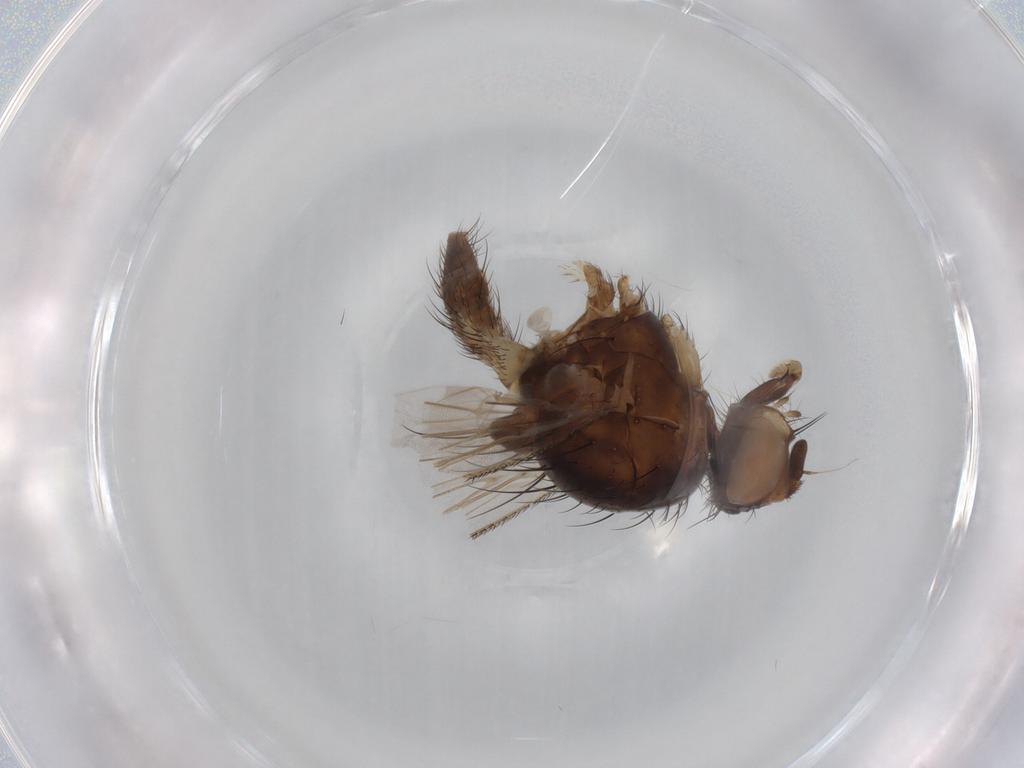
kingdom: Animalia
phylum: Arthropoda
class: Insecta
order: Diptera
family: Anthomyiidae
